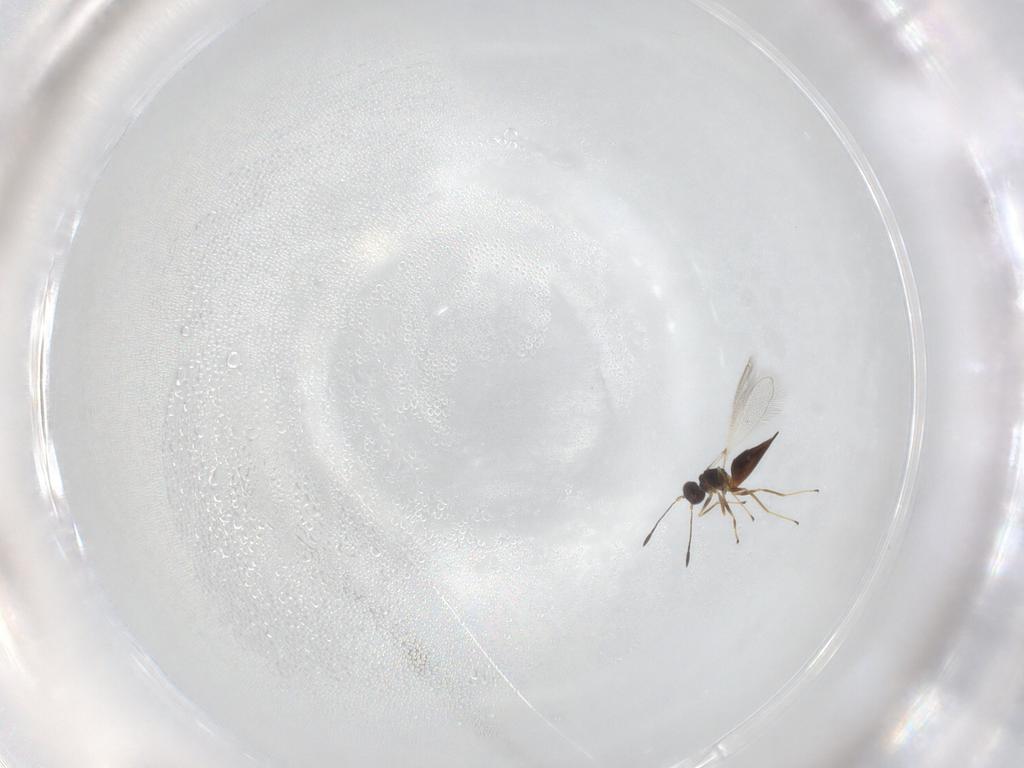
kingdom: Animalia
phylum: Arthropoda
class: Insecta
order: Hymenoptera
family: Mymaridae
